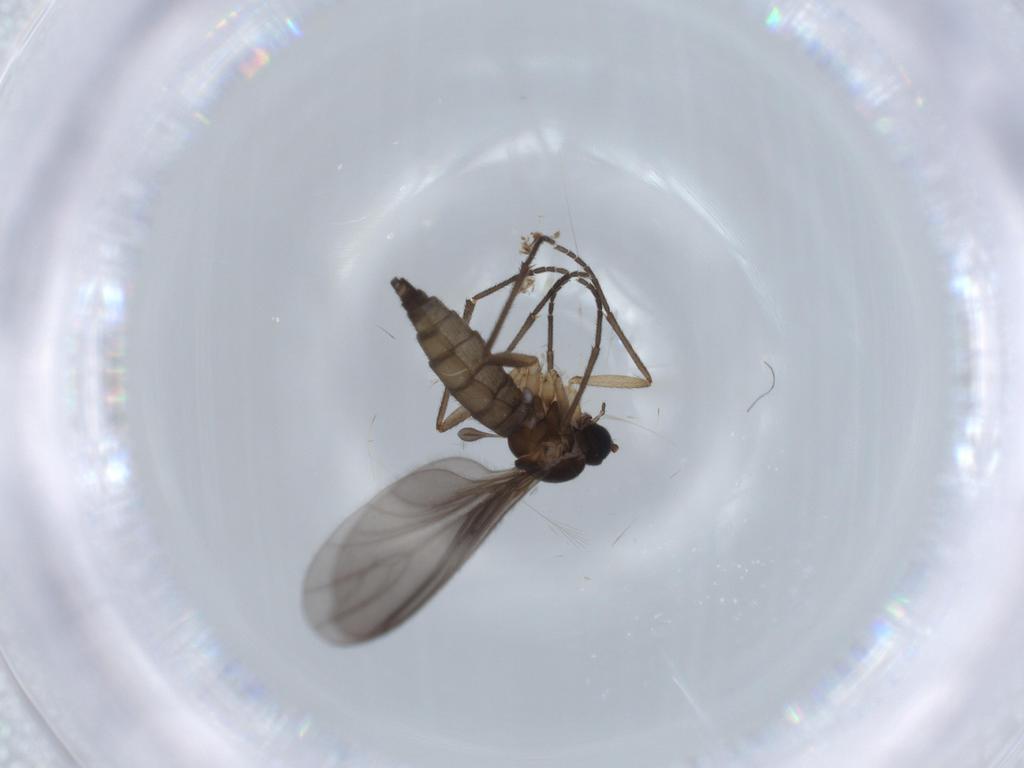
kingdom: Animalia
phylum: Arthropoda
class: Insecta
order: Diptera
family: Sciaridae
